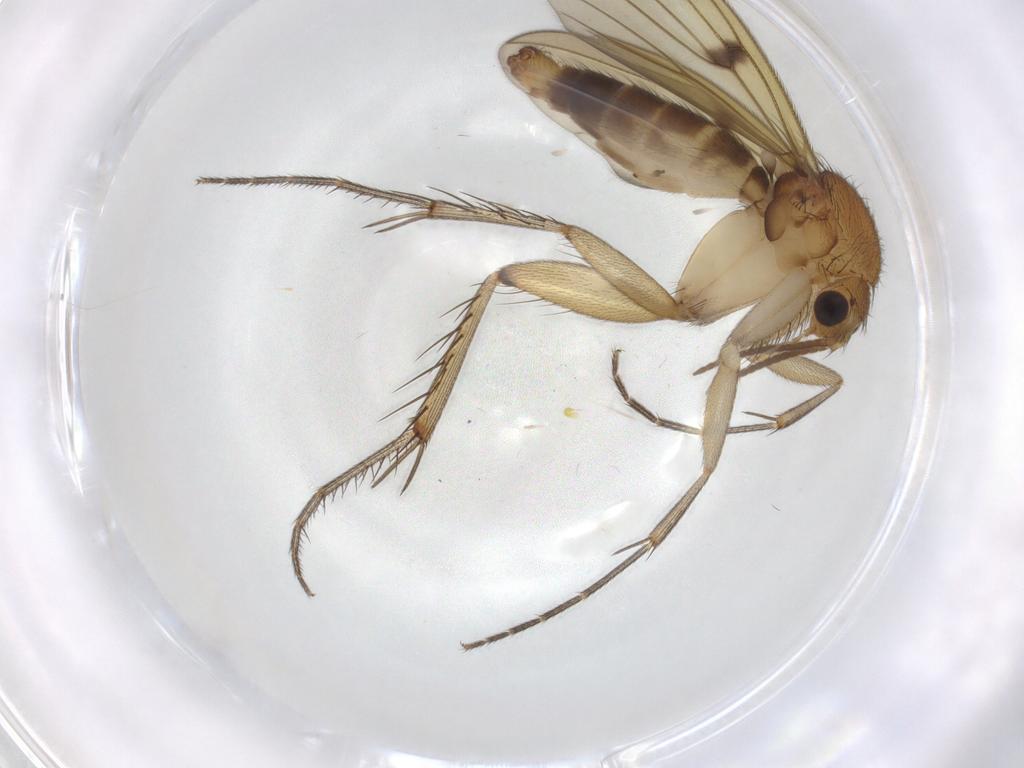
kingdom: Animalia
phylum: Arthropoda
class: Insecta
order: Diptera
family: Mycetophilidae
